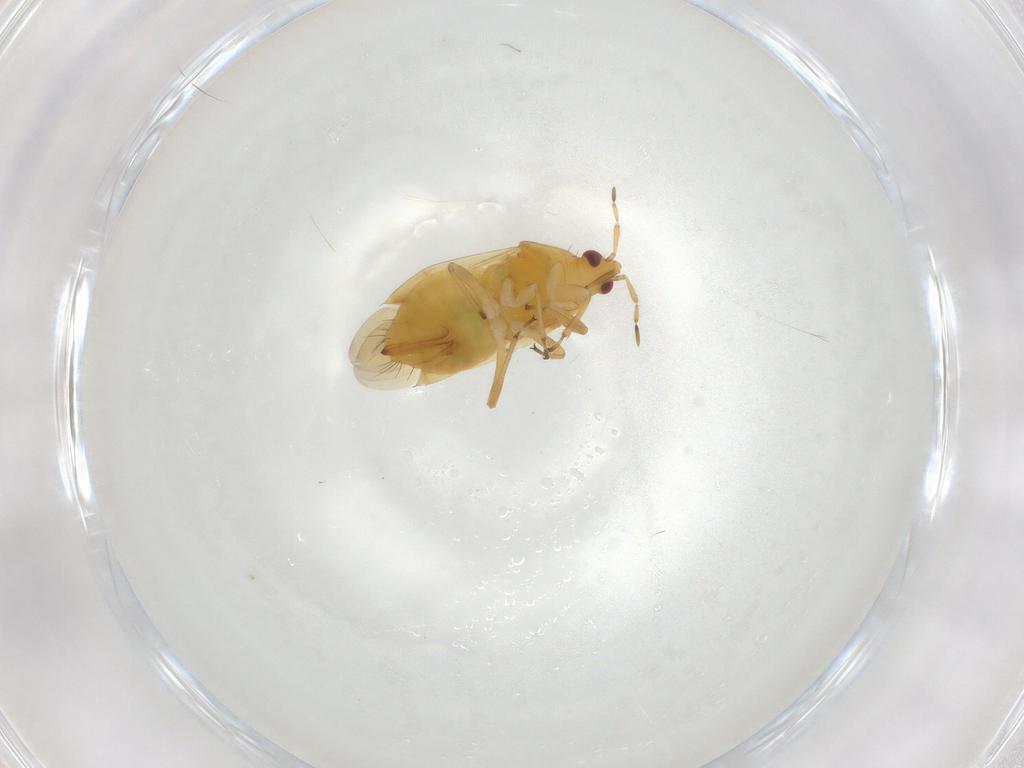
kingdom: Animalia
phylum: Arthropoda
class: Insecta
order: Hemiptera
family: Anthocoridae
